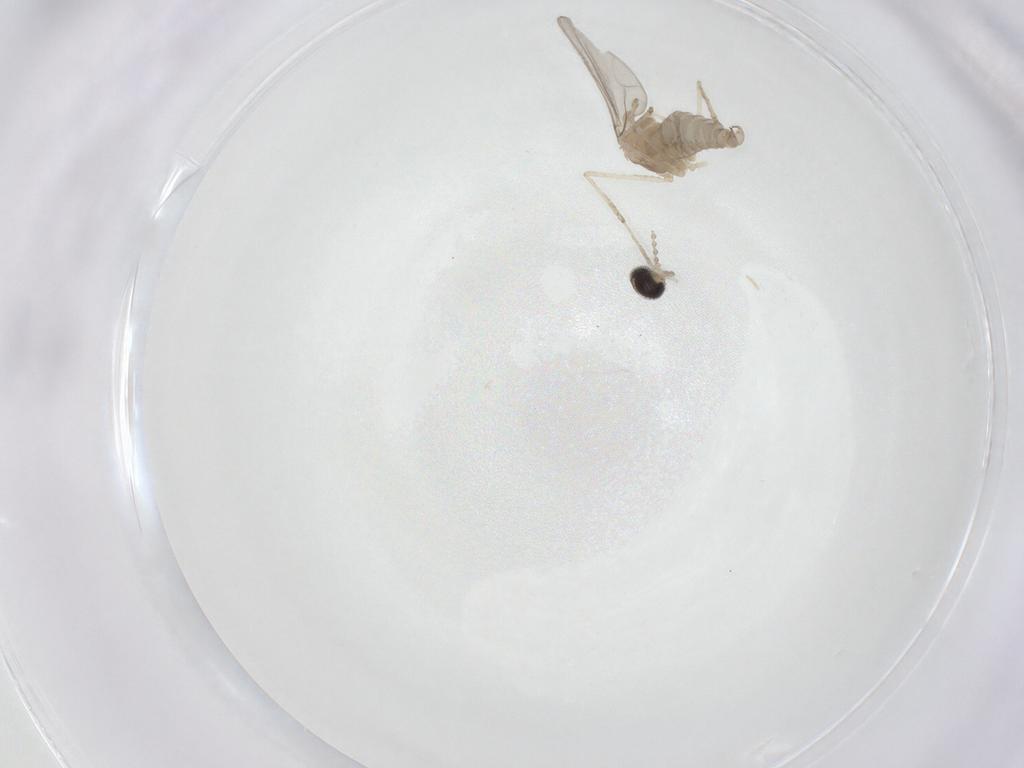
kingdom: Animalia
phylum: Arthropoda
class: Insecta
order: Diptera
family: Cecidomyiidae
